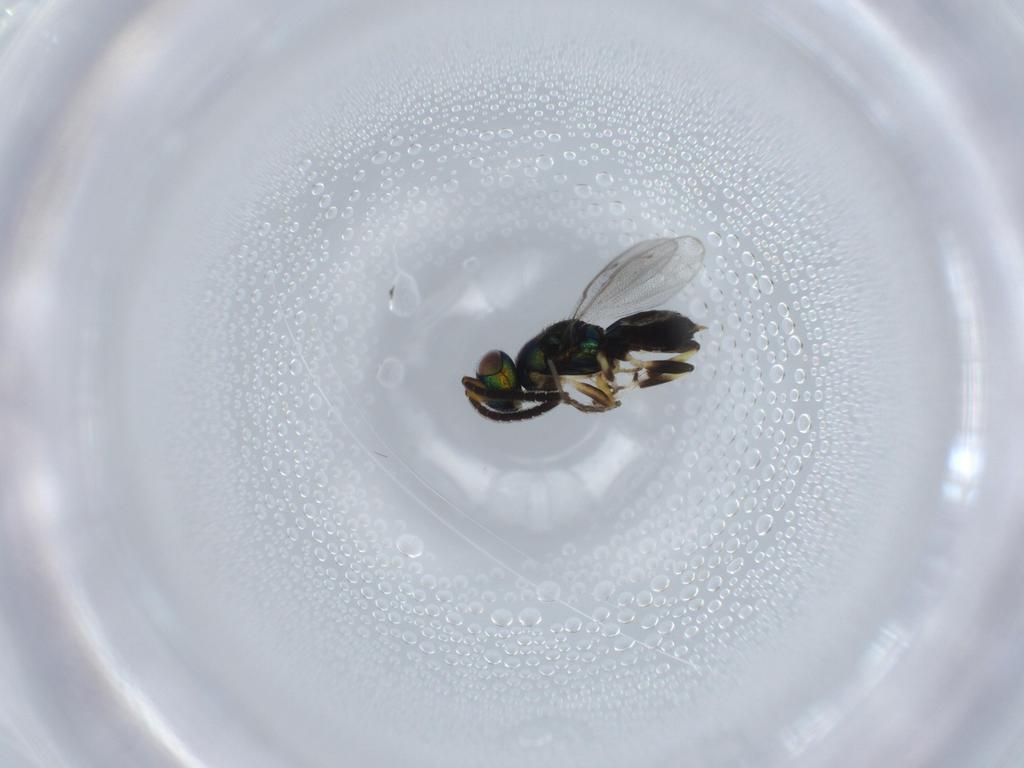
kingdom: Animalia
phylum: Arthropoda
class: Insecta
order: Hymenoptera
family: Eupelmidae
